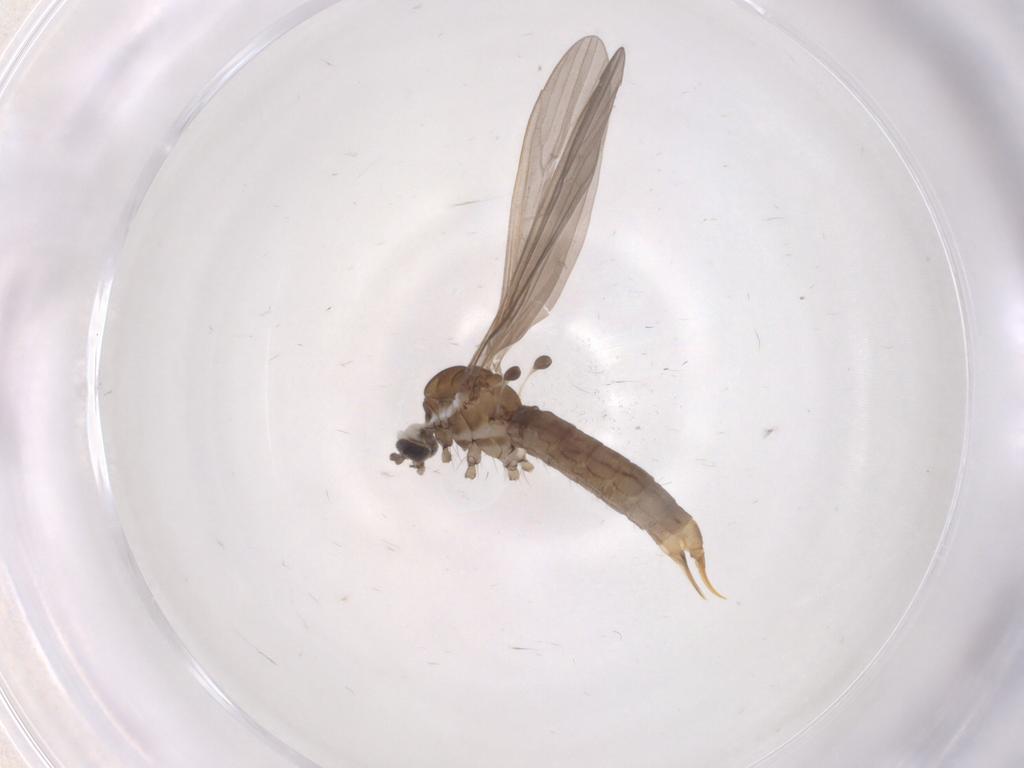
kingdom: Animalia
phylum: Arthropoda
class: Insecta
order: Diptera
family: Limoniidae
